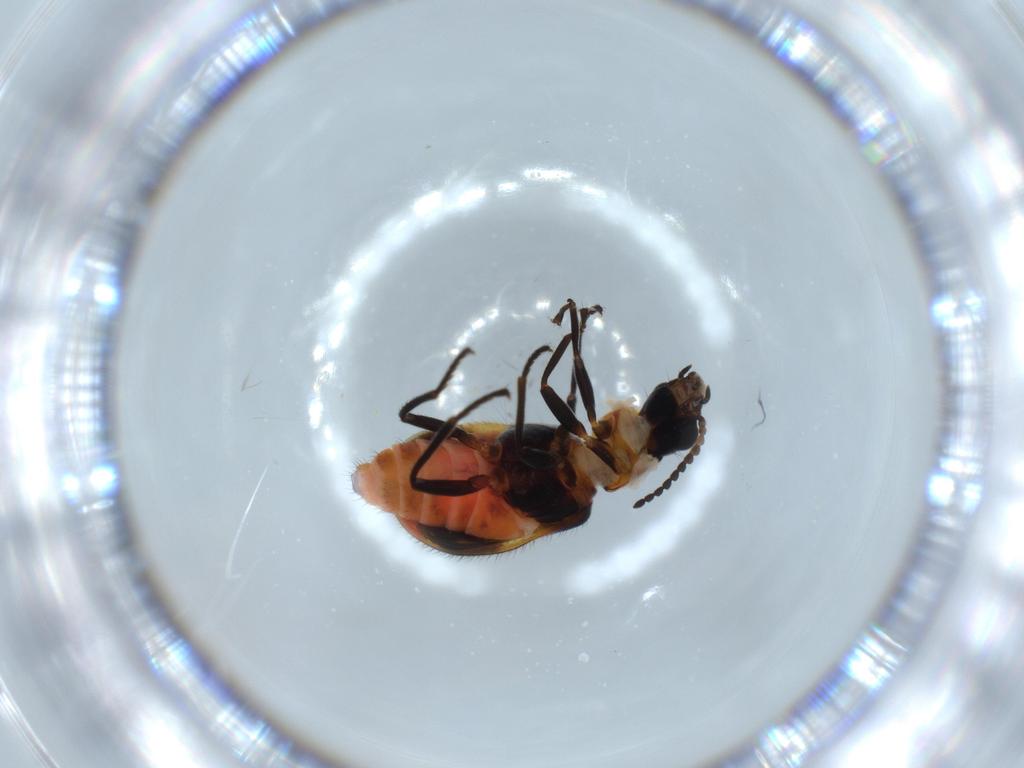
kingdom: Animalia
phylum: Arthropoda
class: Insecta
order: Coleoptera
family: Melyridae
